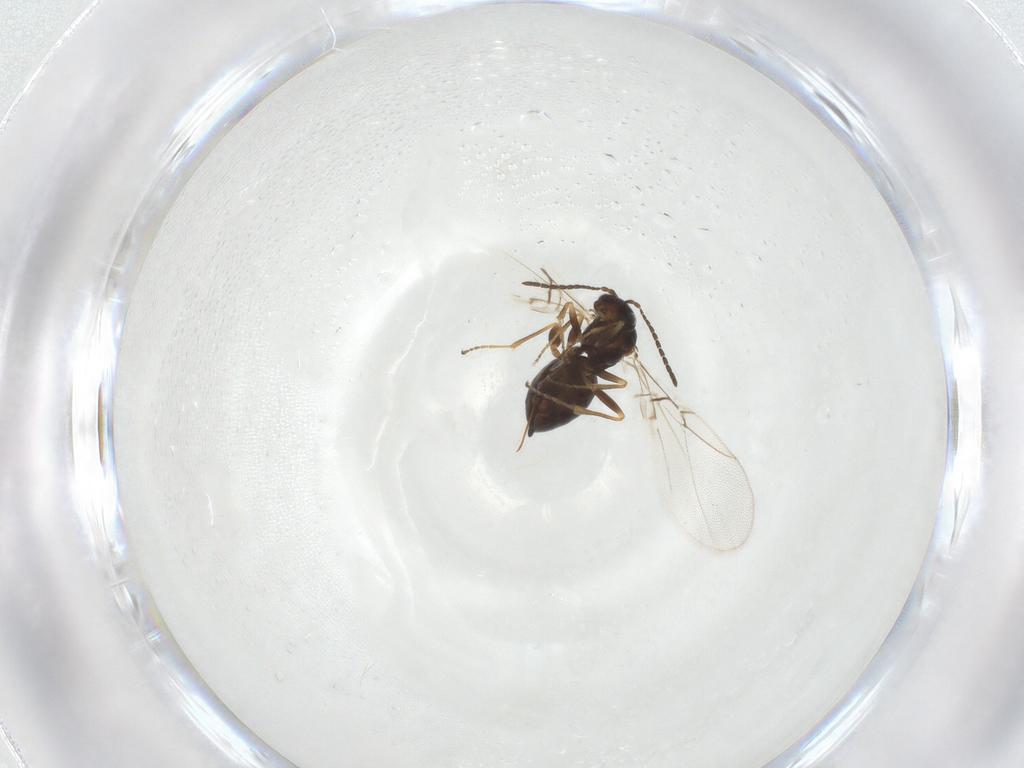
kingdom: Animalia
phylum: Arthropoda
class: Insecta
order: Hymenoptera
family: Cynipidae
